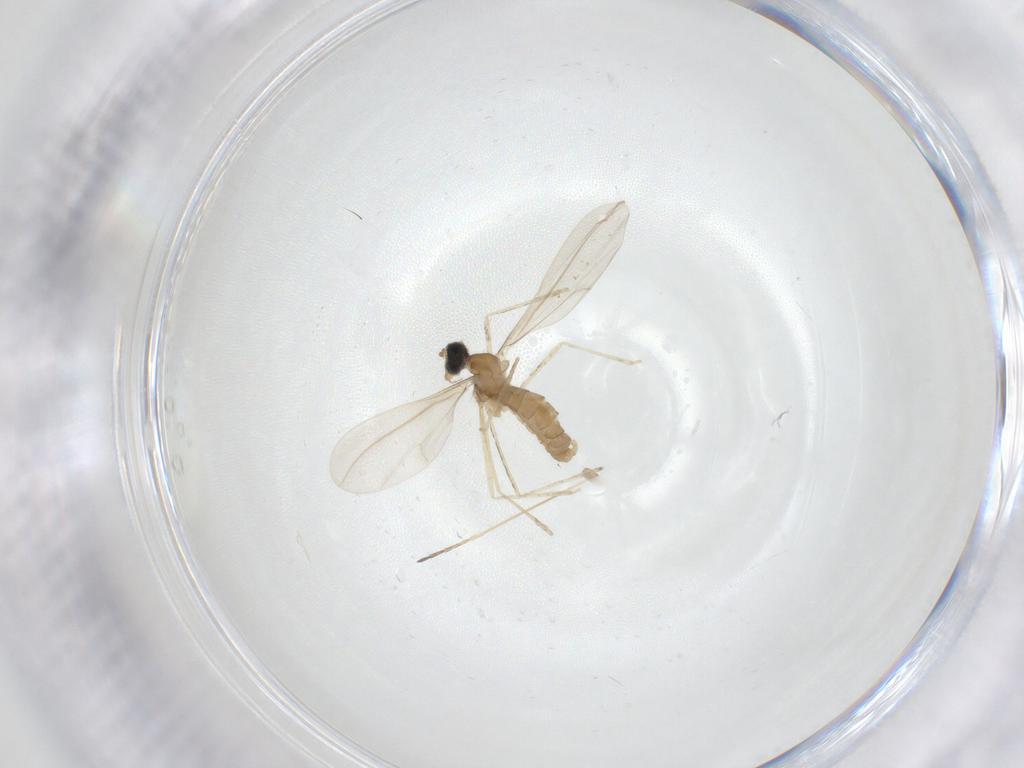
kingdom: Animalia
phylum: Arthropoda
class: Insecta
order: Diptera
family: Cecidomyiidae
